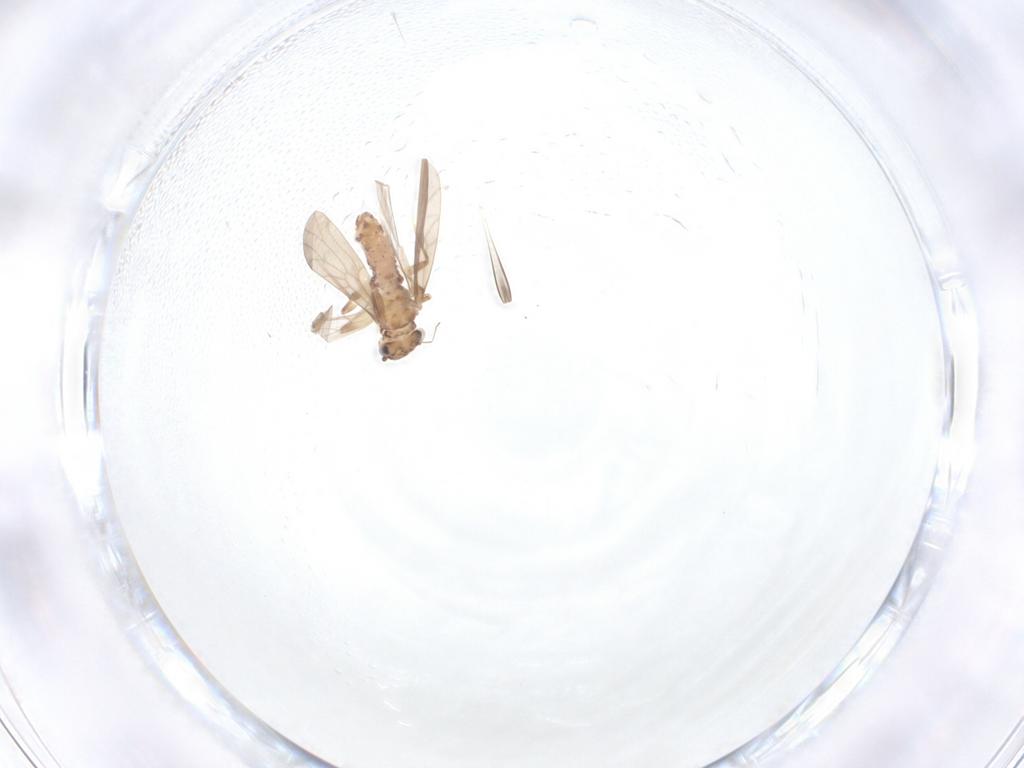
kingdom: Animalia
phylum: Arthropoda
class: Insecta
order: Psocodea
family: Lepidopsocidae
